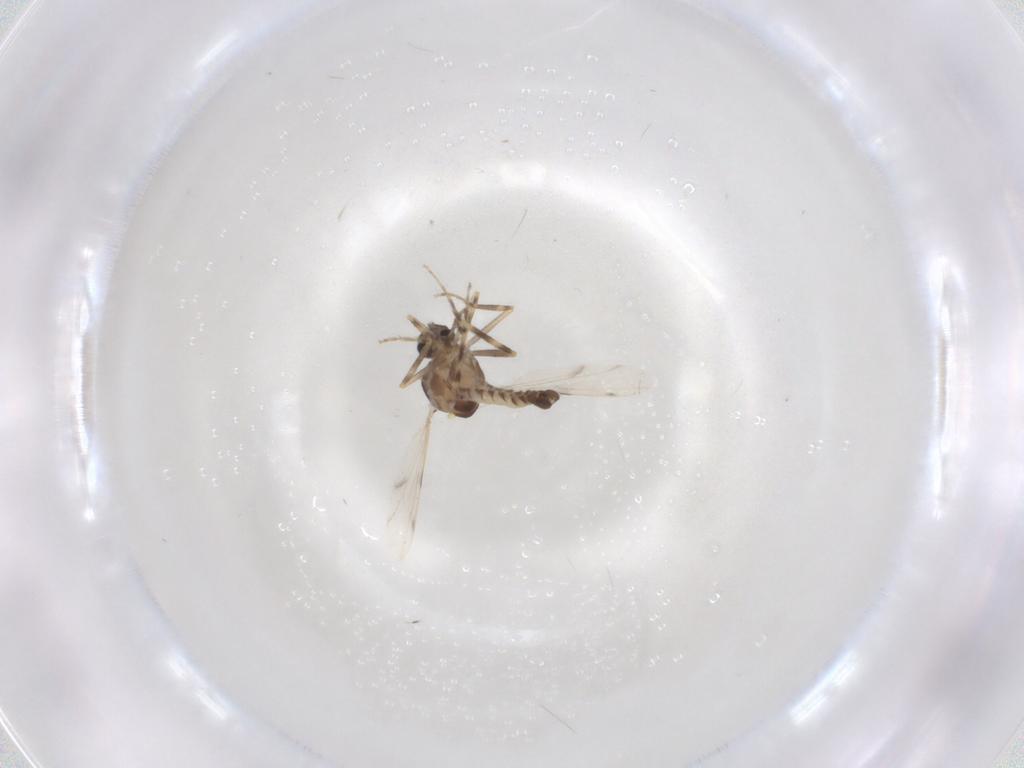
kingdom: Animalia
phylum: Arthropoda
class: Insecta
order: Diptera
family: Ceratopogonidae
